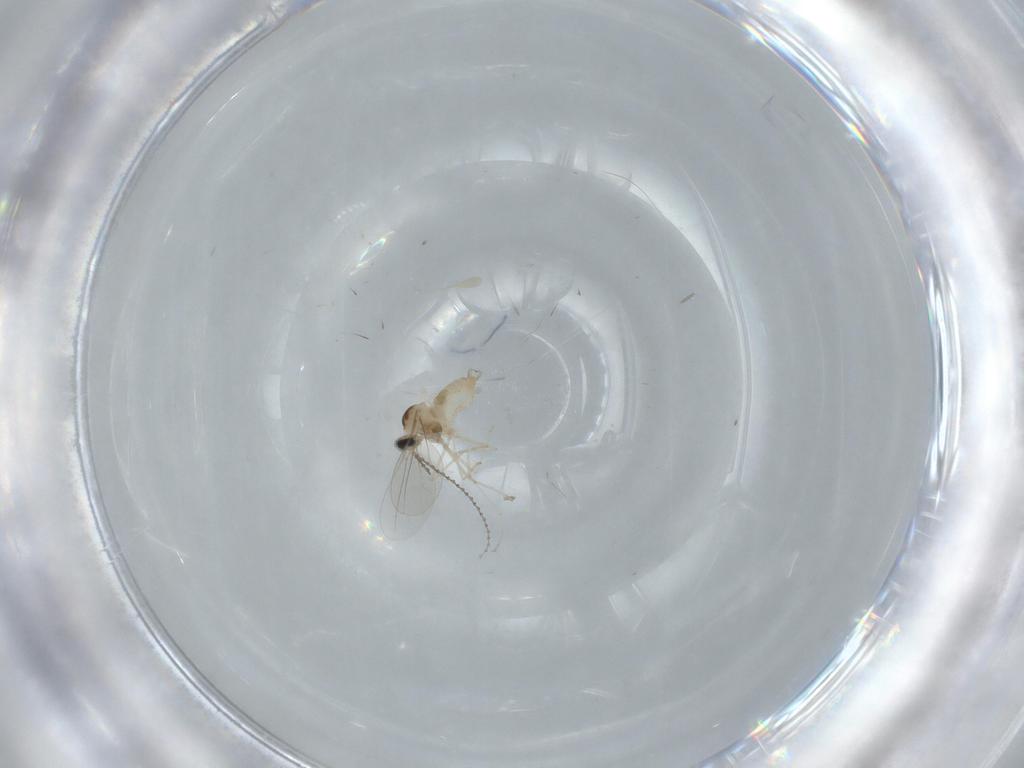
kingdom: Animalia
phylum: Arthropoda
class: Insecta
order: Diptera
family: Cecidomyiidae
